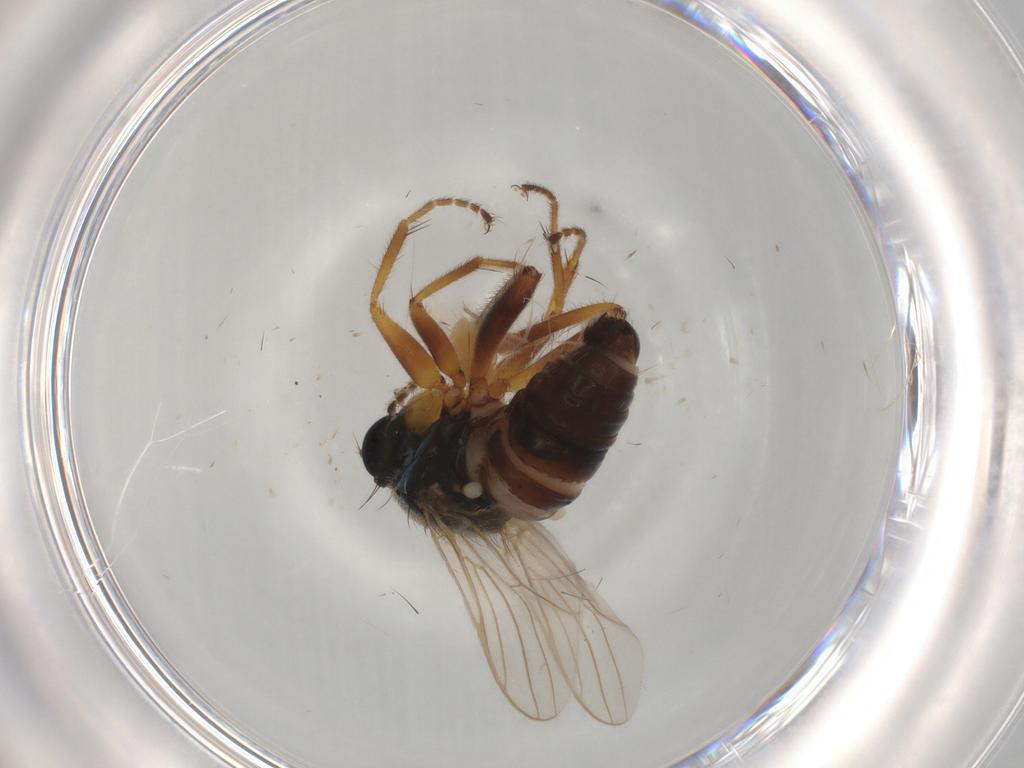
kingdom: Animalia
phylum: Arthropoda
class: Insecta
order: Diptera
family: Hybotidae
